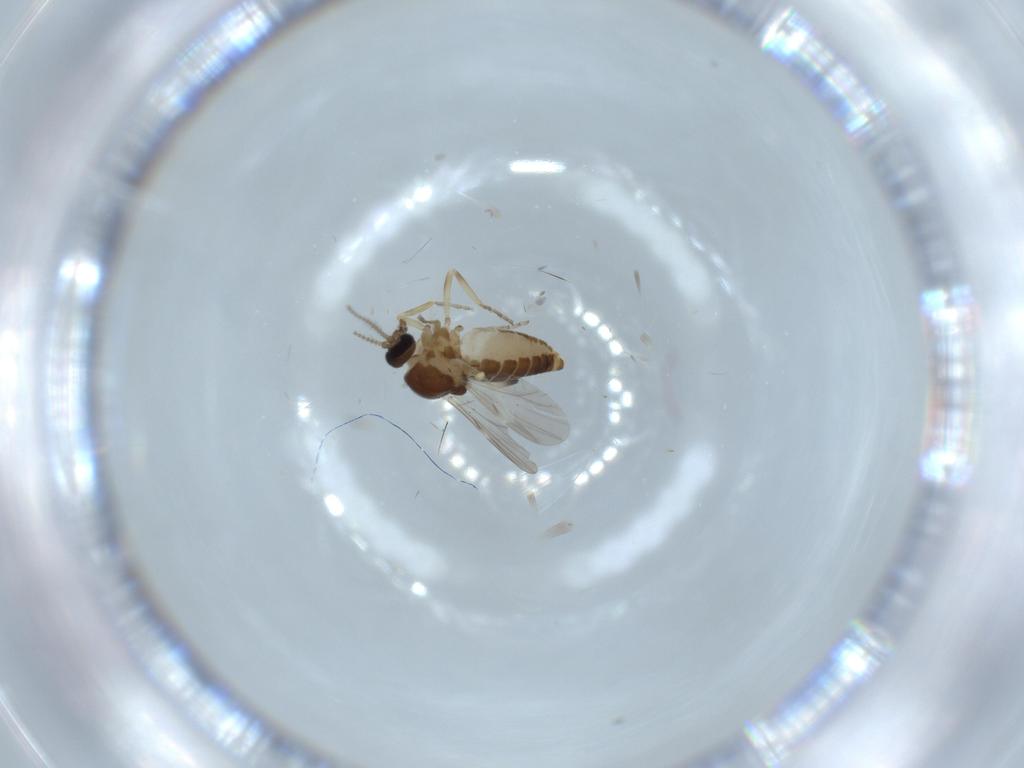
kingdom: Animalia
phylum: Arthropoda
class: Insecta
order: Diptera
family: Ceratopogonidae
